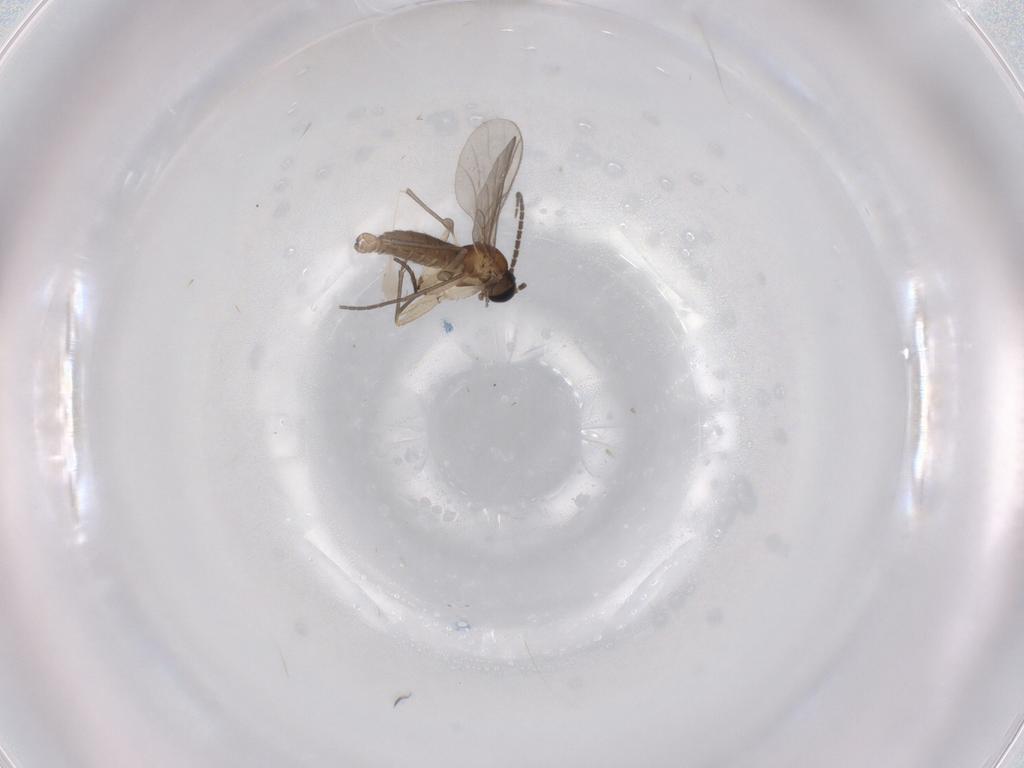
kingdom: Animalia
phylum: Arthropoda
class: Insecta
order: Diptera
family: Sciaridae
